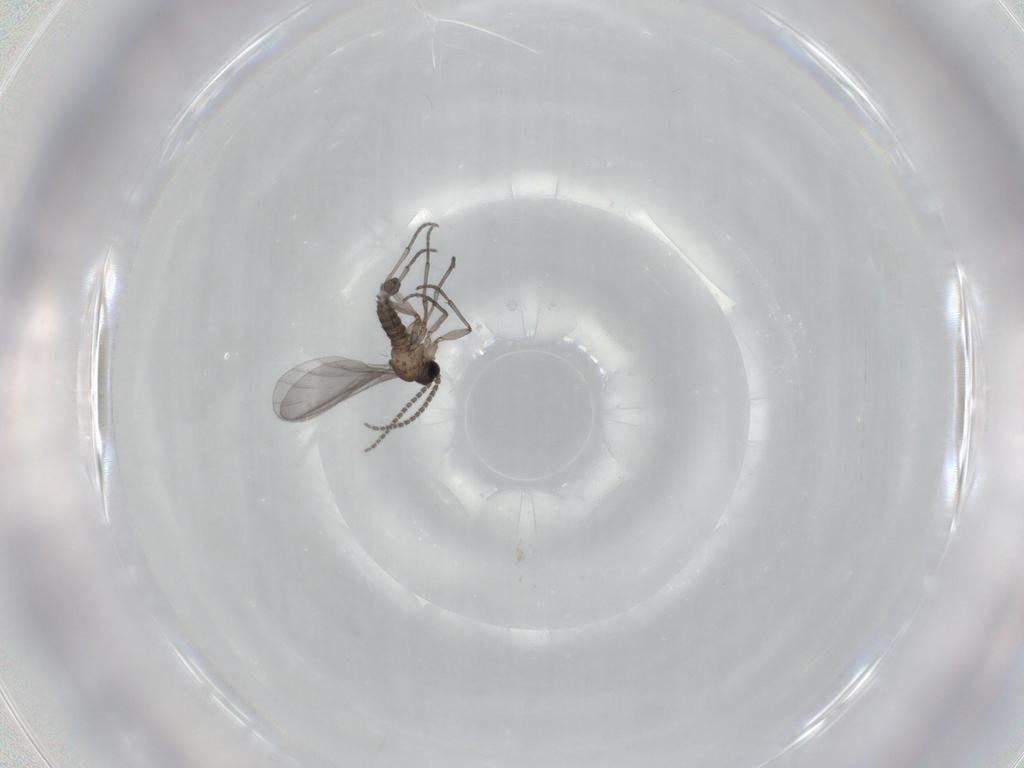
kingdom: Animalia
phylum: Arthropoda
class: Insecta
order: Diptera
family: Sciaridae
